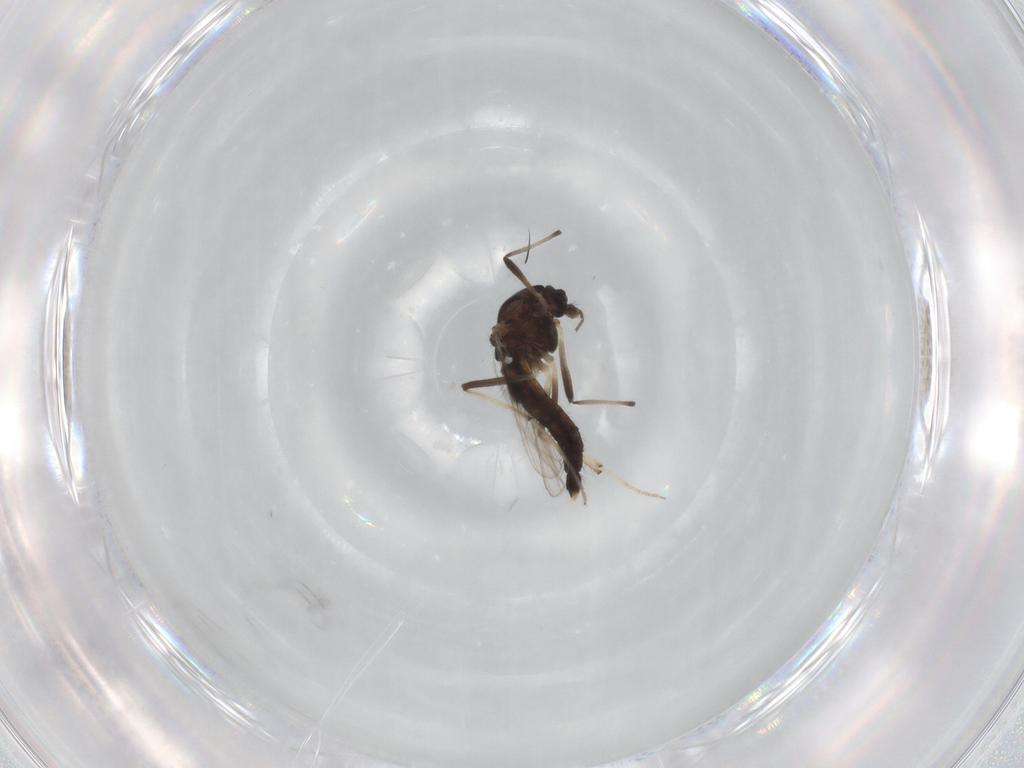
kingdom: Animalia
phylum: Arthropoda
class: Insecta
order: Diptera
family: Chironomidae
